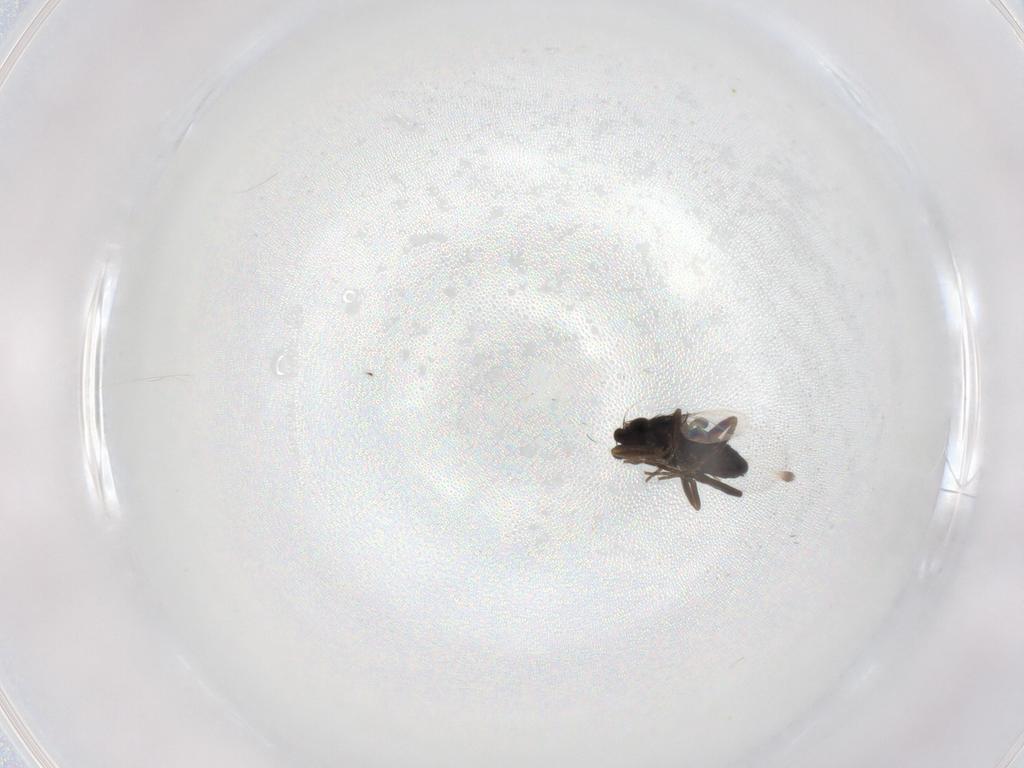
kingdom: Animalia
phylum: Arthropoda
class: Insecta
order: Diptera
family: Phoridae
